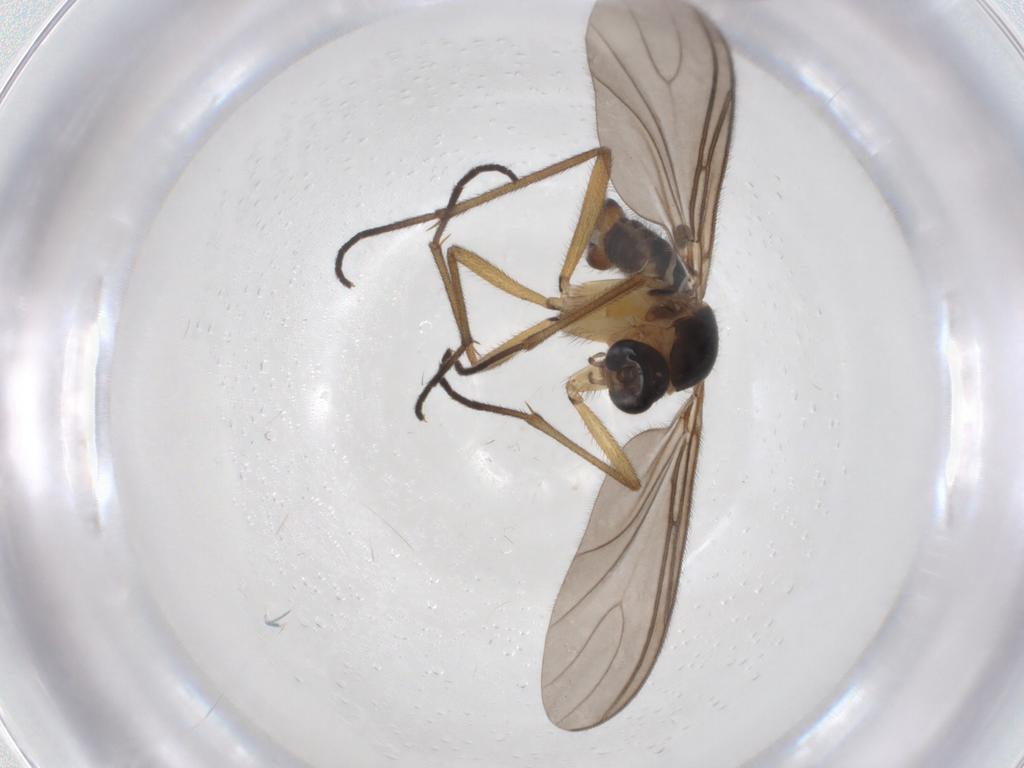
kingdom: Animalia
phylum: Arthropoda
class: Insecta
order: Diptera
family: Sciaridae
